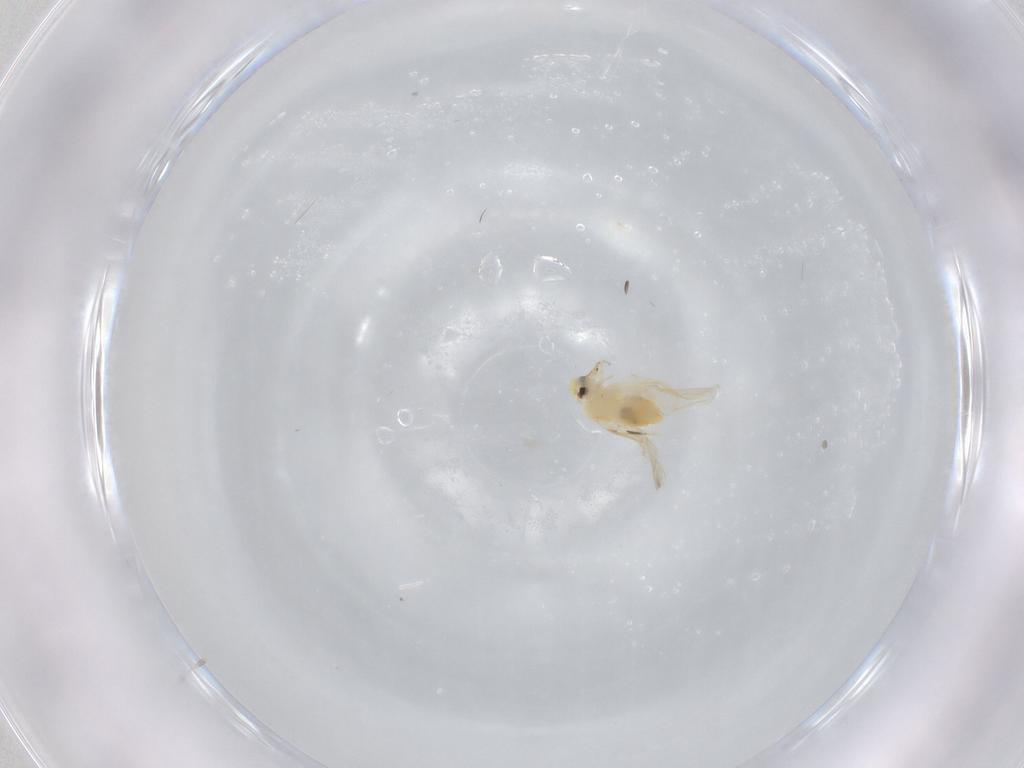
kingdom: Animalia
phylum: Arthropoda
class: Insecta
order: Hemiptera
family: Aleyrodidae
